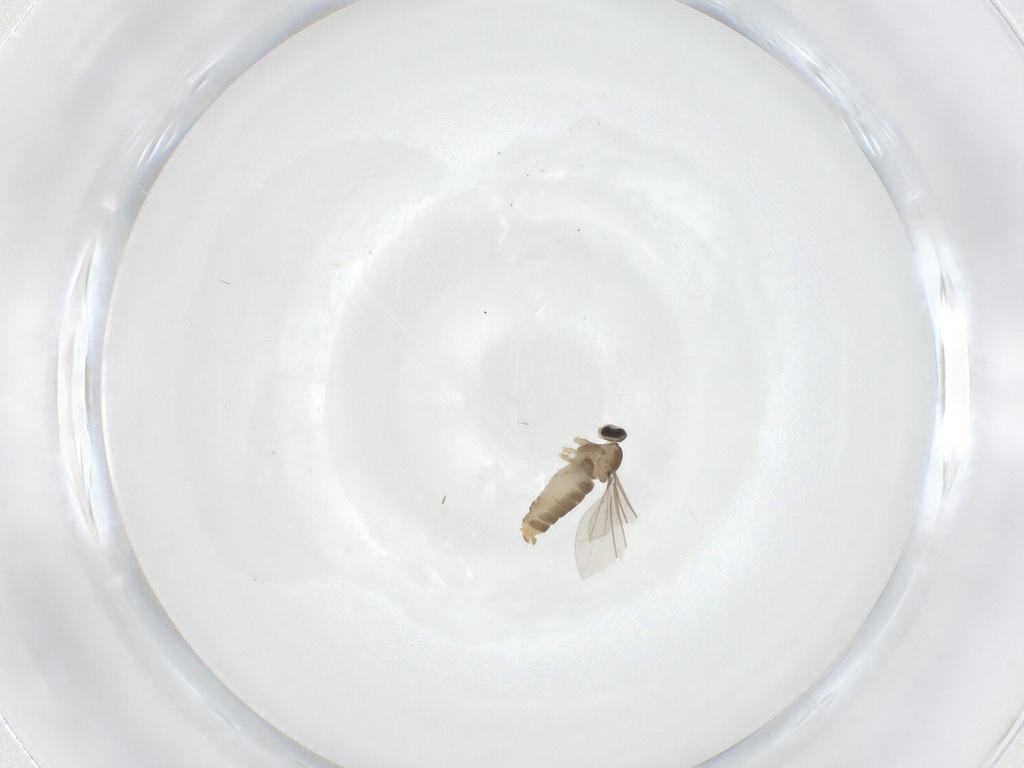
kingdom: Animalia
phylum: Arthropoda
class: Insecta
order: Diptera
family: Cecidomyiidae
